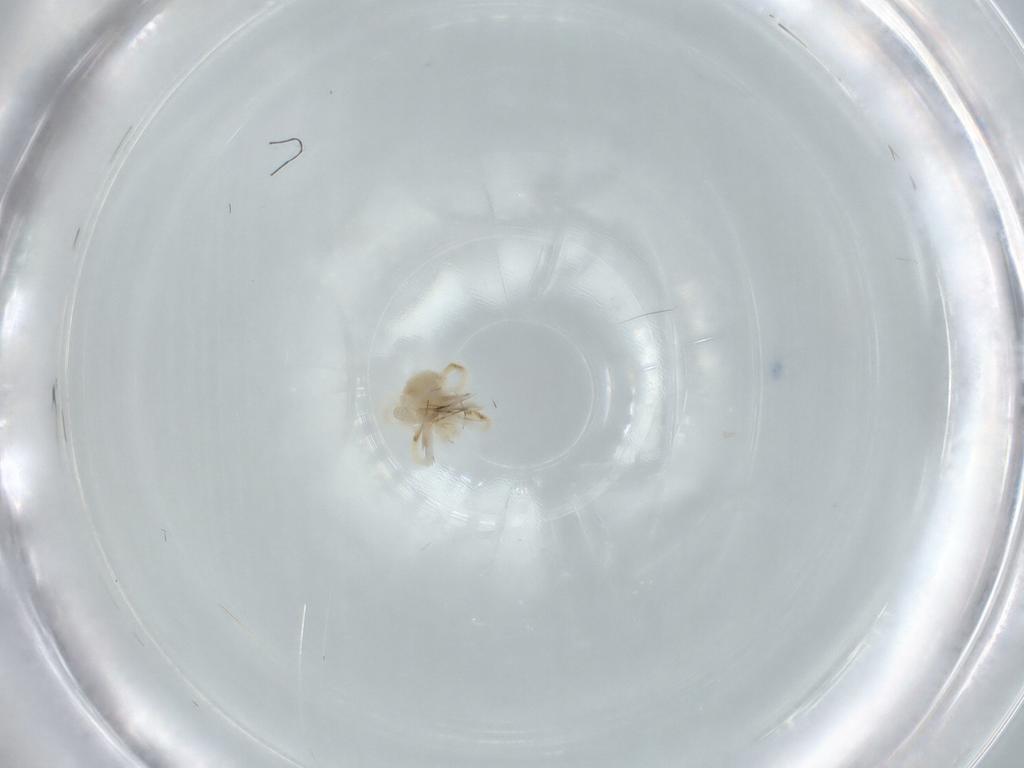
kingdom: Animalia
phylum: Arthropoda
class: Arachnida
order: Trombidiformes
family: Anystidae
